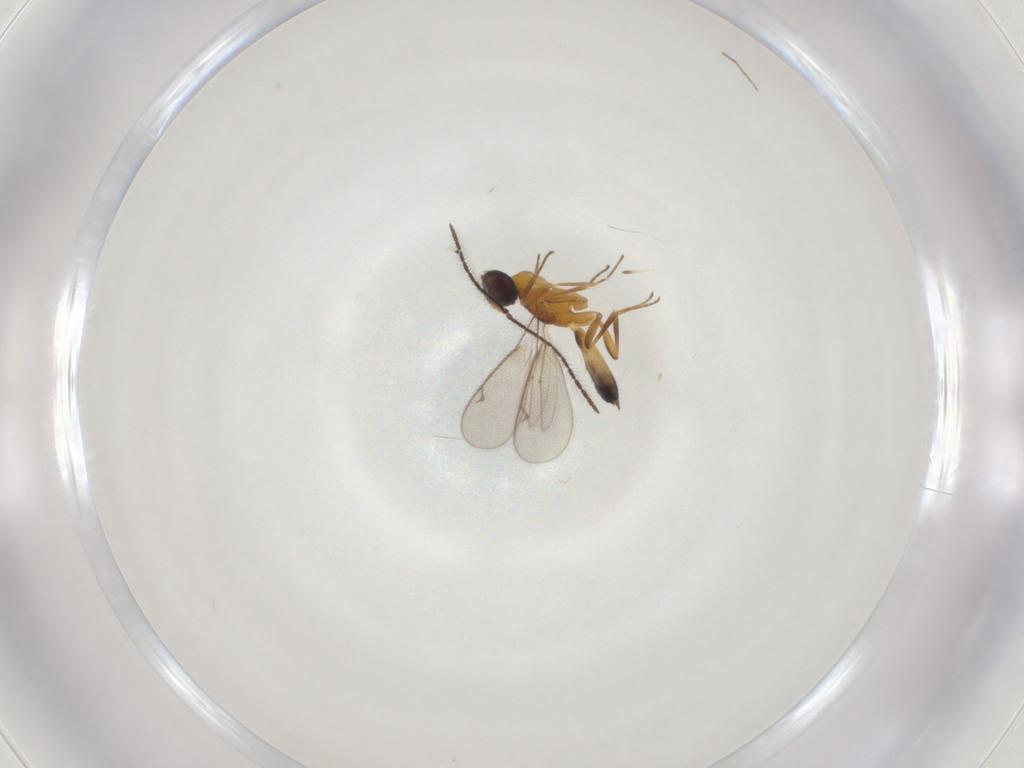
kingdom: Animalia
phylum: Arthropoda
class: Insecta
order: Hymenoptera
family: Eupelmidae
